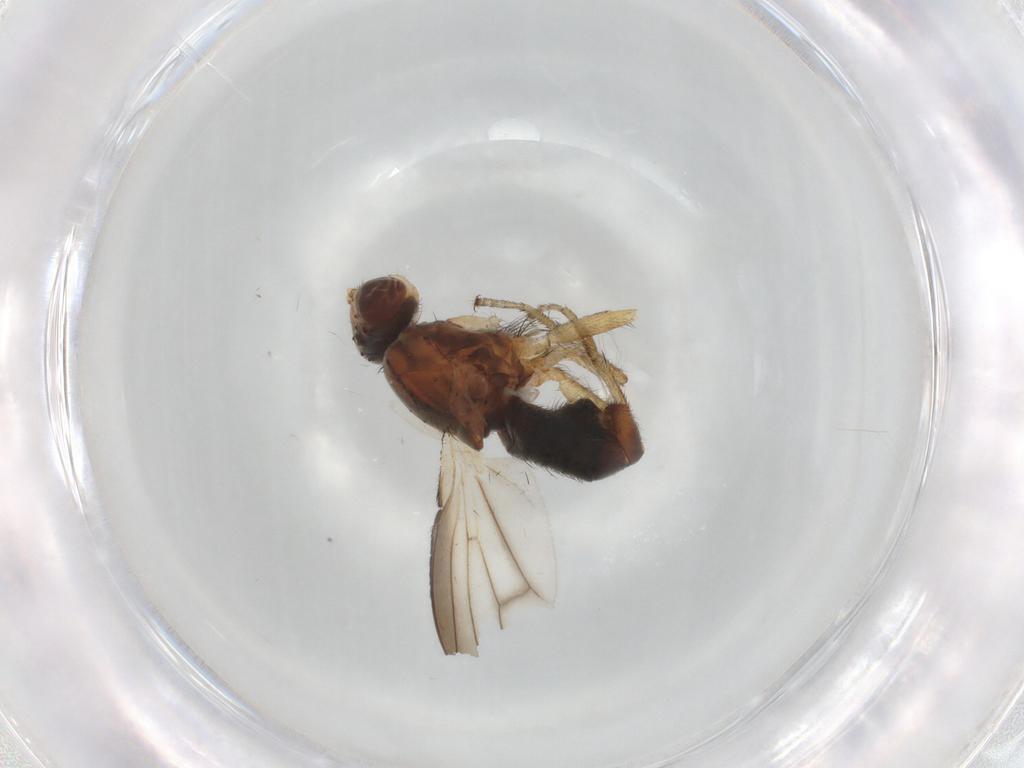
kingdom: Animalia
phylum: Arthropoda
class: Insecta
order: Diptera
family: Heleomyzidae
